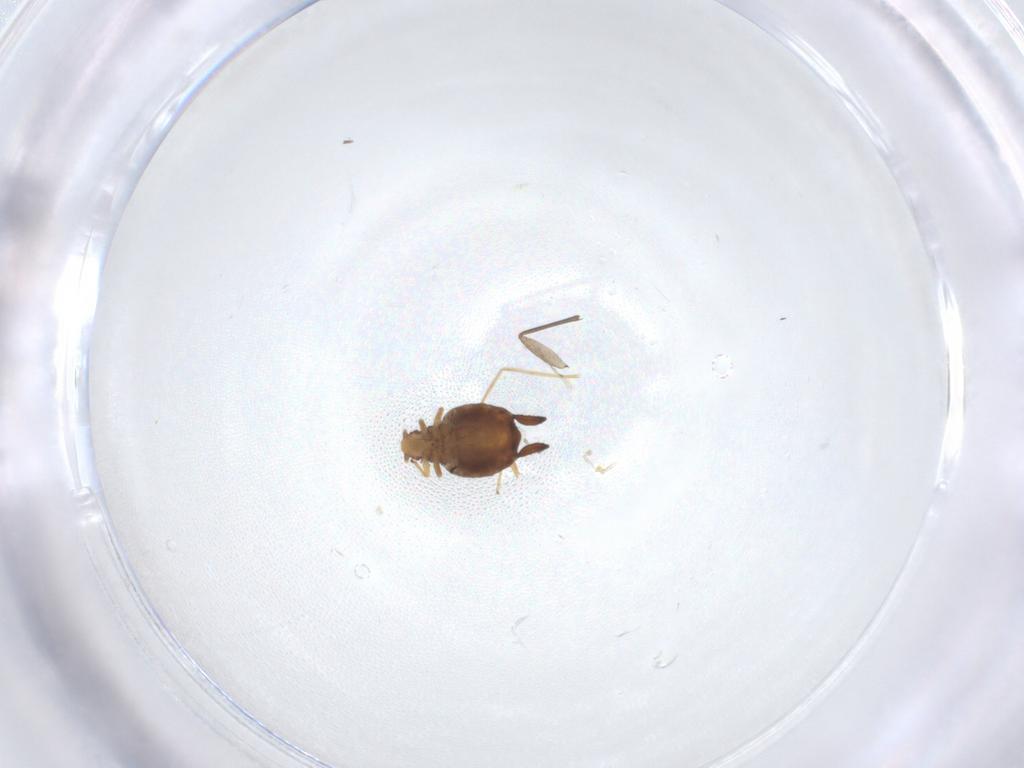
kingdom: Animalia
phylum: Arthropoda
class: Insecta
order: Hemiptera
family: Aphididae
